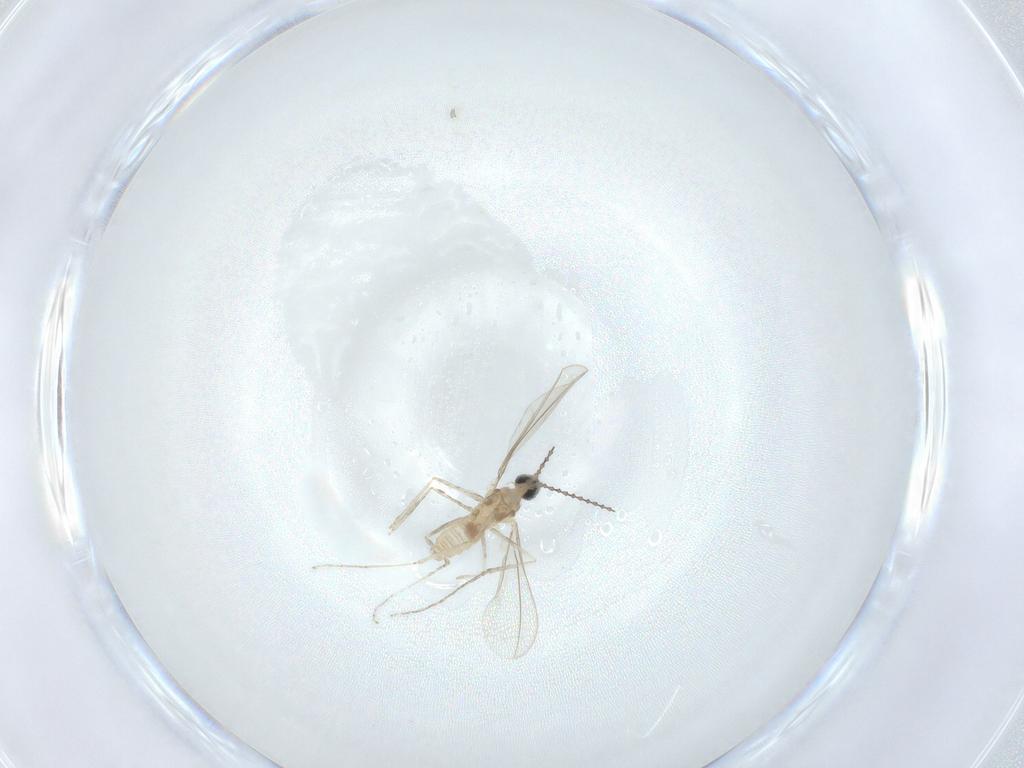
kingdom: Animalia
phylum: Arthropoda
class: Insecta
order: Diptera
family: Cecidomyiidae
